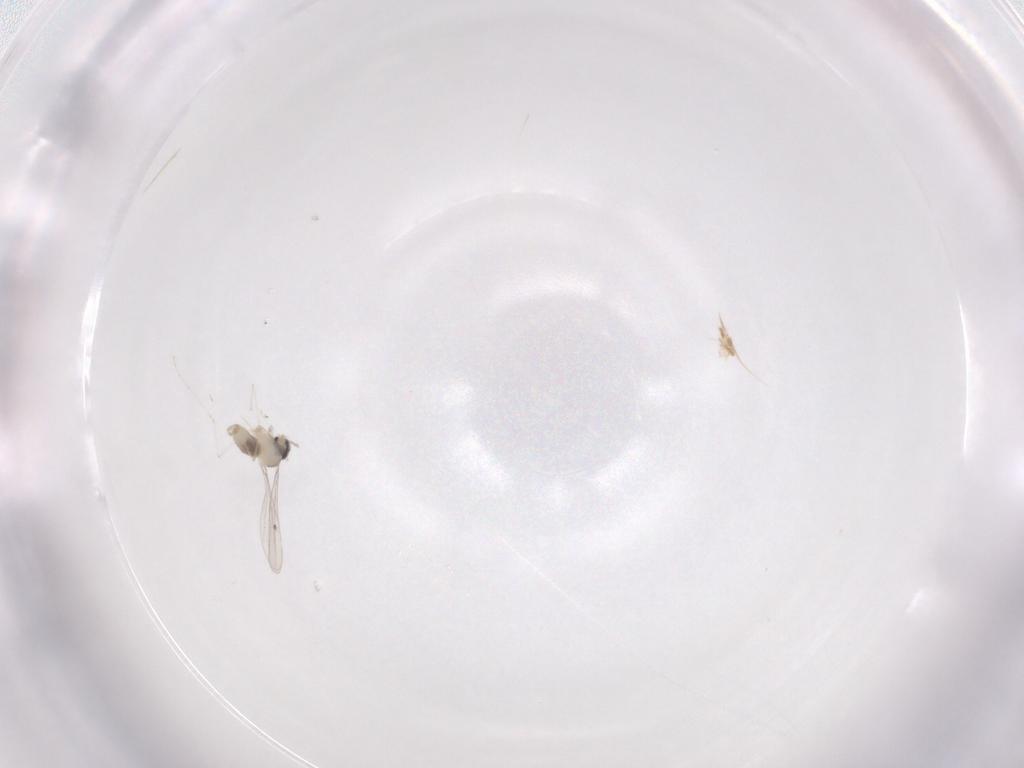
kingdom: Animalia
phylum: Arthropoda
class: Insecta
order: Diptera
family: Cecidomyiidae
